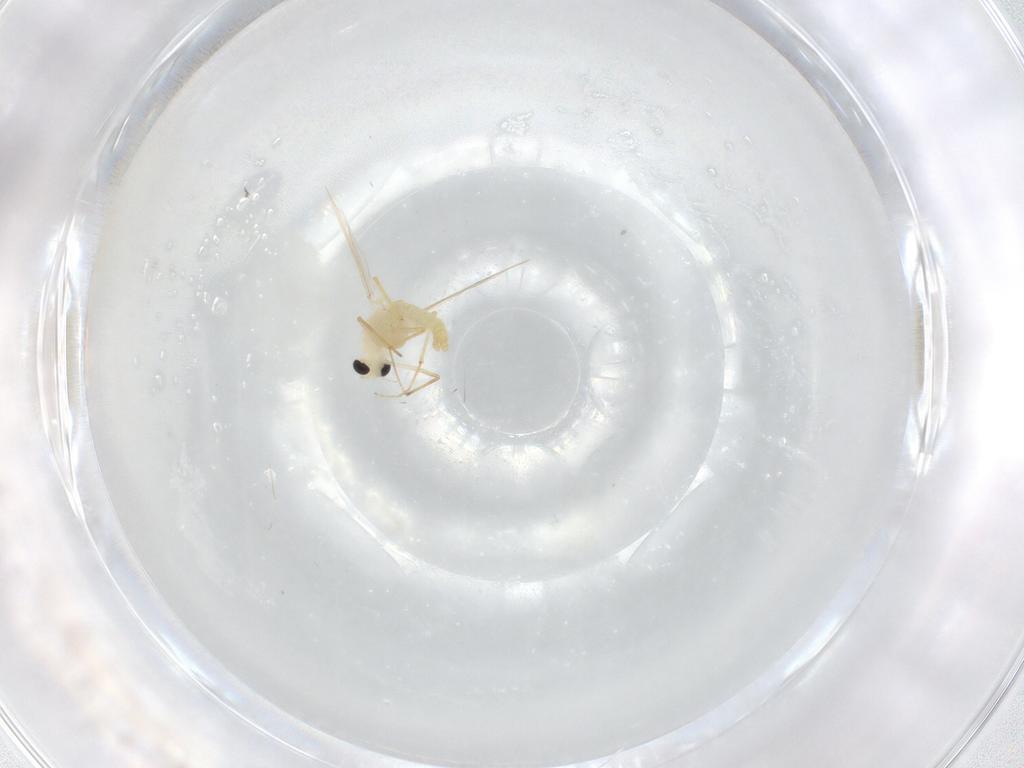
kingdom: Animalia
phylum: Arthropoda
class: Insecta
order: Diptera
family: Chironomidae
